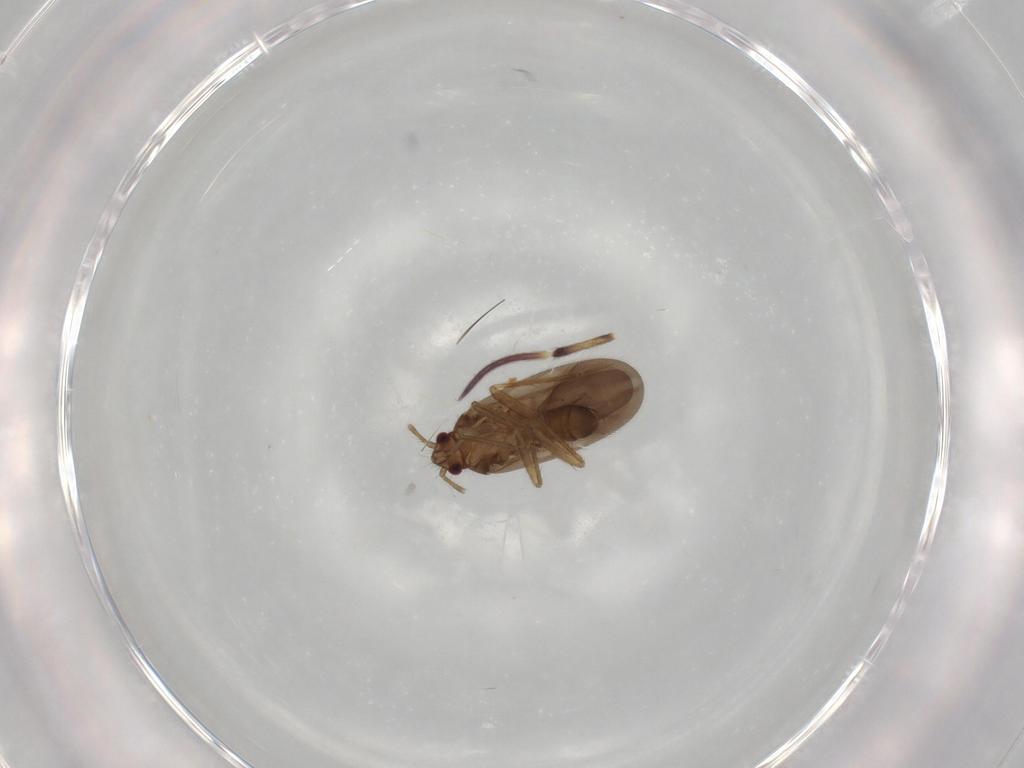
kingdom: Animalia
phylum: Arthropoda
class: Insecta
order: Hemiptera
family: Ceratocombidae
